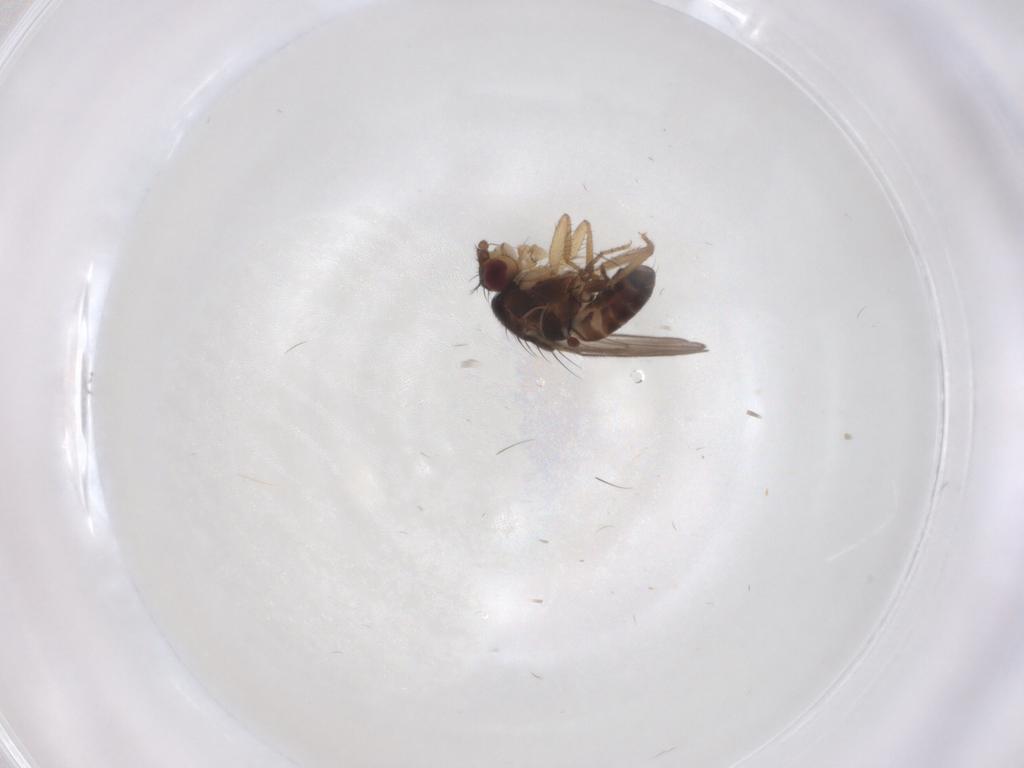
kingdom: Animalia
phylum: Arthropoda
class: Insecta
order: Diptera
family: Sphaeroceridae
